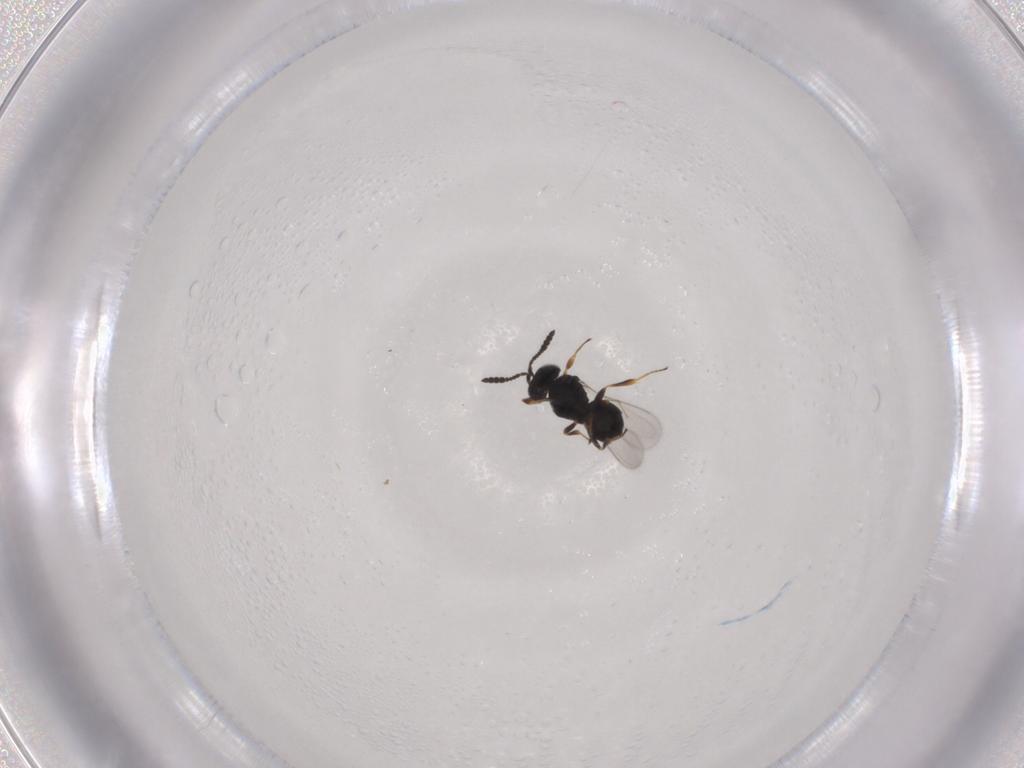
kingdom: Animalia
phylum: Arthropoda
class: Insecta
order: Hymenoptera
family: Scelionidae
